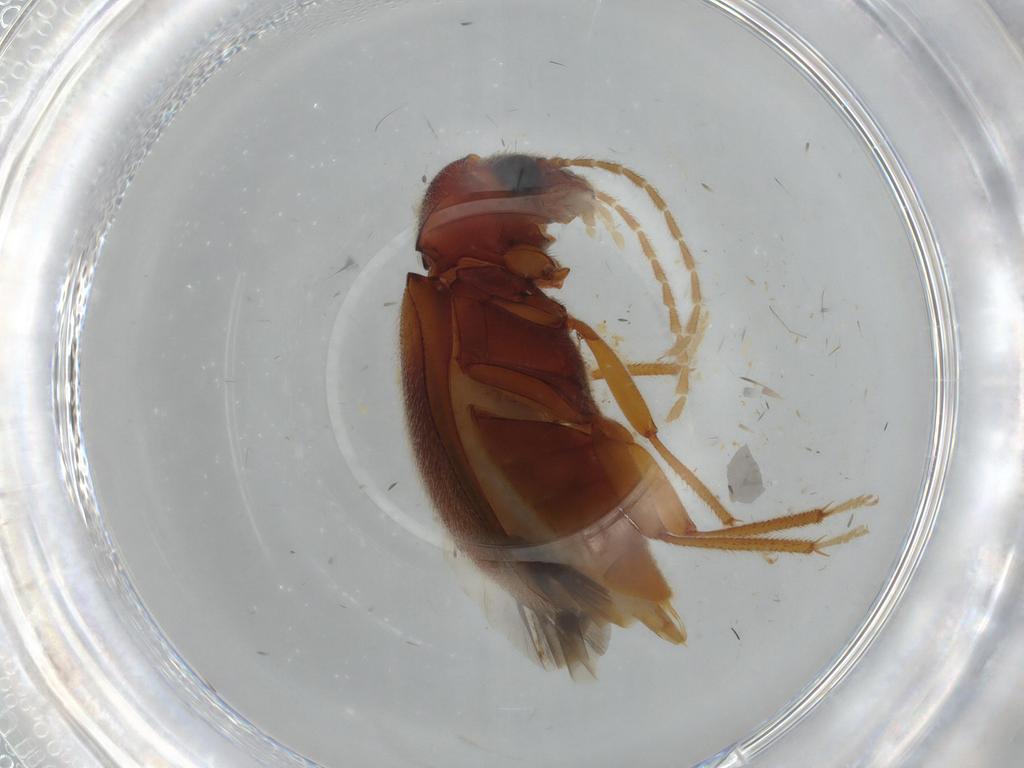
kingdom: Animalia
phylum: Arthropoda
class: Insecta
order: Coleoptera
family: Ptilodactylidae
